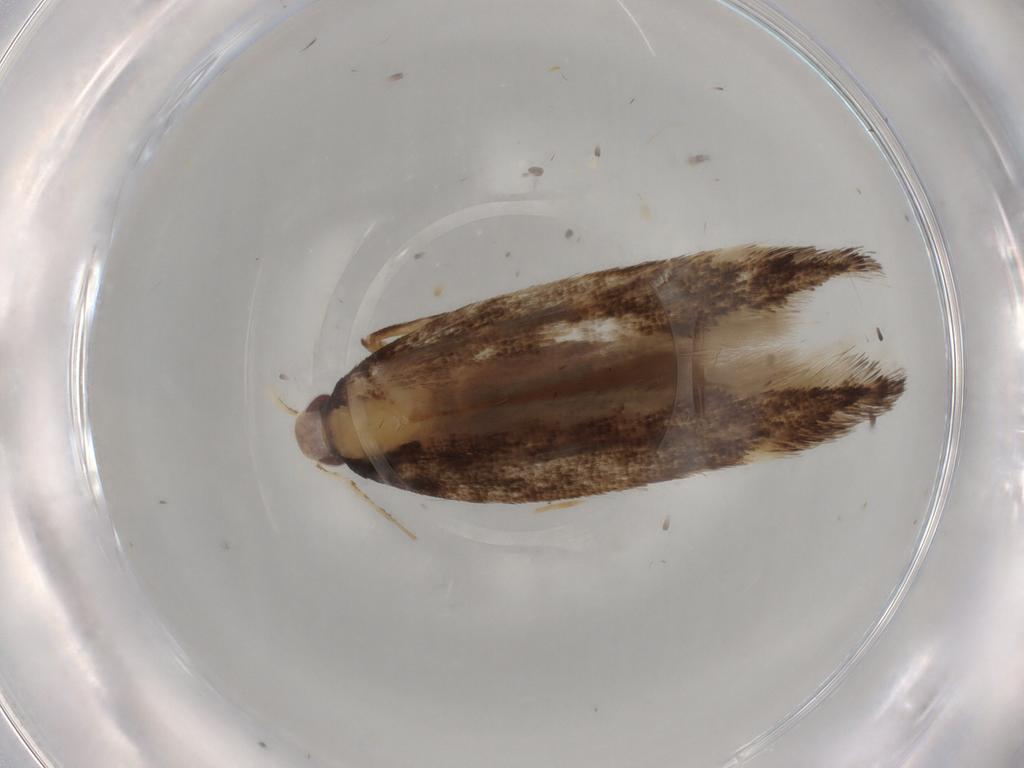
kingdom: Animalia
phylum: Arthropoda
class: Insecta
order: Lepidoptera
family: Cosmopterigidae
